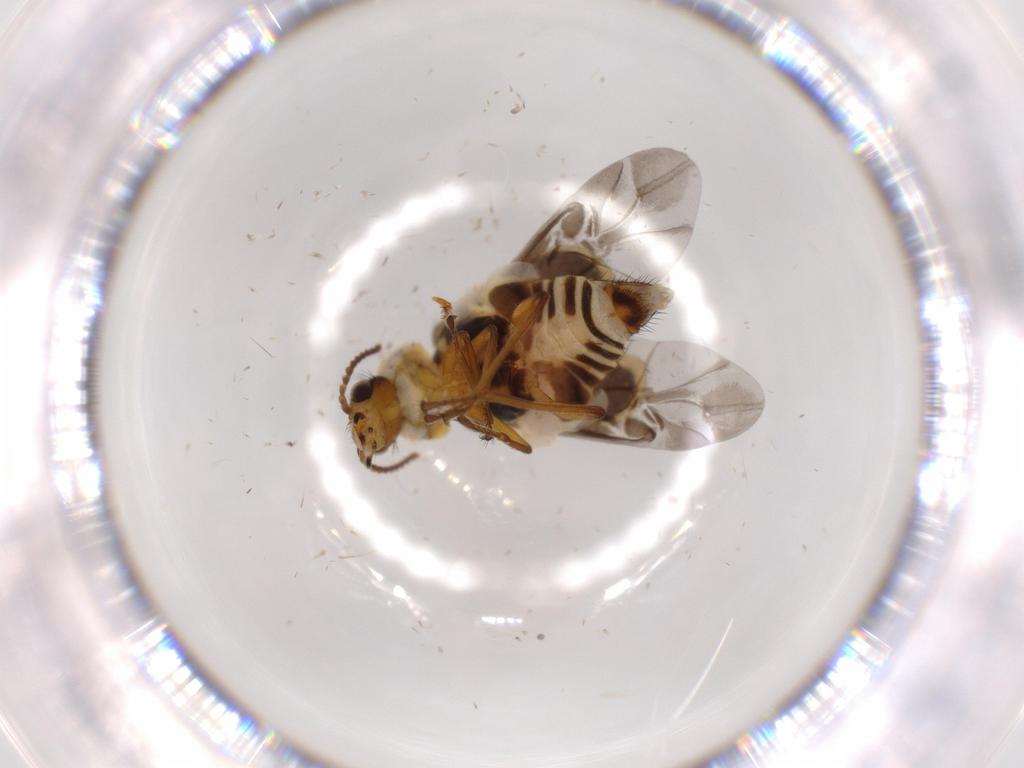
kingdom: Animalia
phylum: Arthropoda
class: Insecta
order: Coleoptera
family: Melyridae
